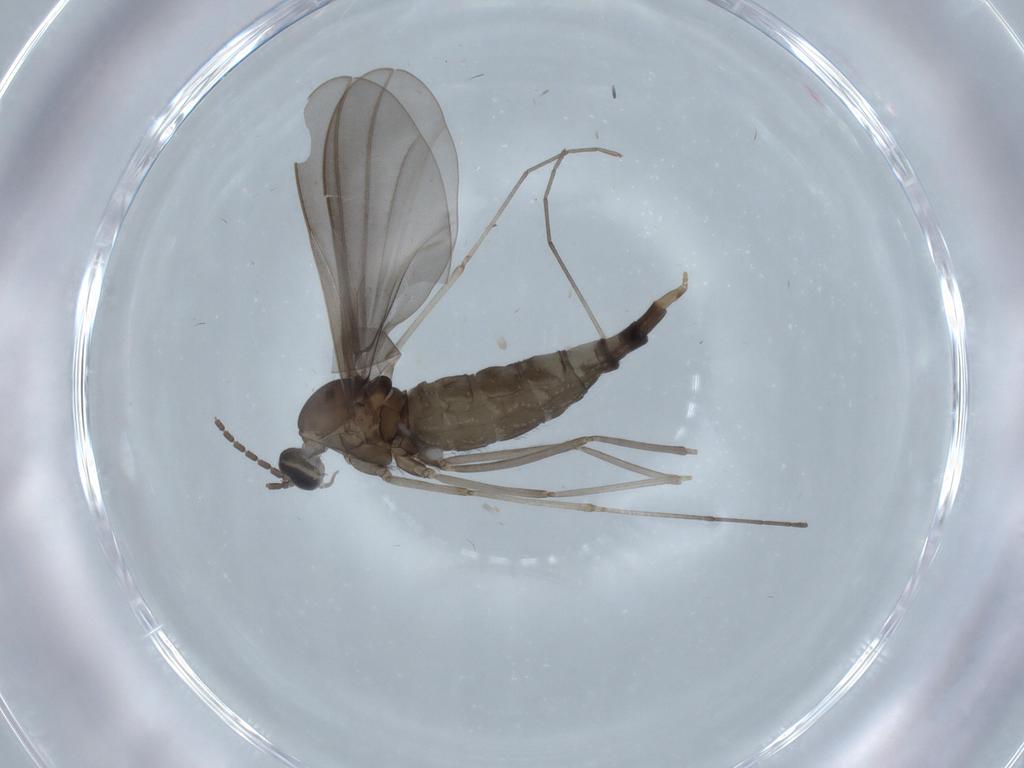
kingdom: Animalia
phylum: Arthropoda
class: Insecta
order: Diptera
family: Cecidomyiidae
